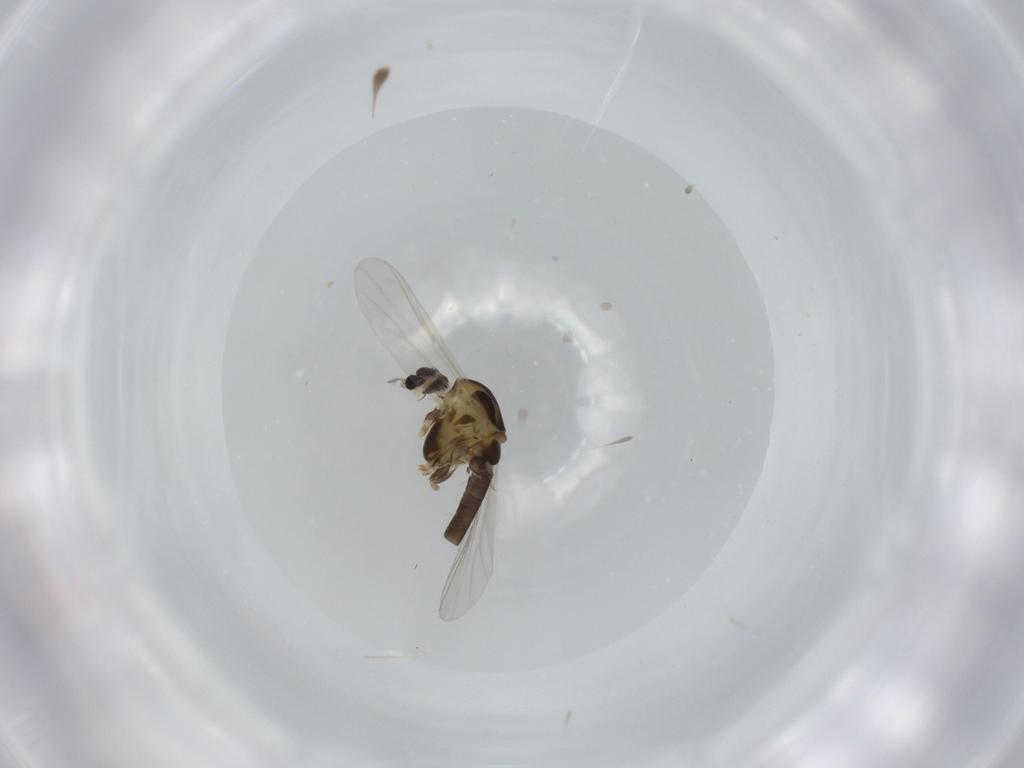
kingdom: Animalia
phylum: Arthropoda
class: Insecta
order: Diptera
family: Chironomidae
